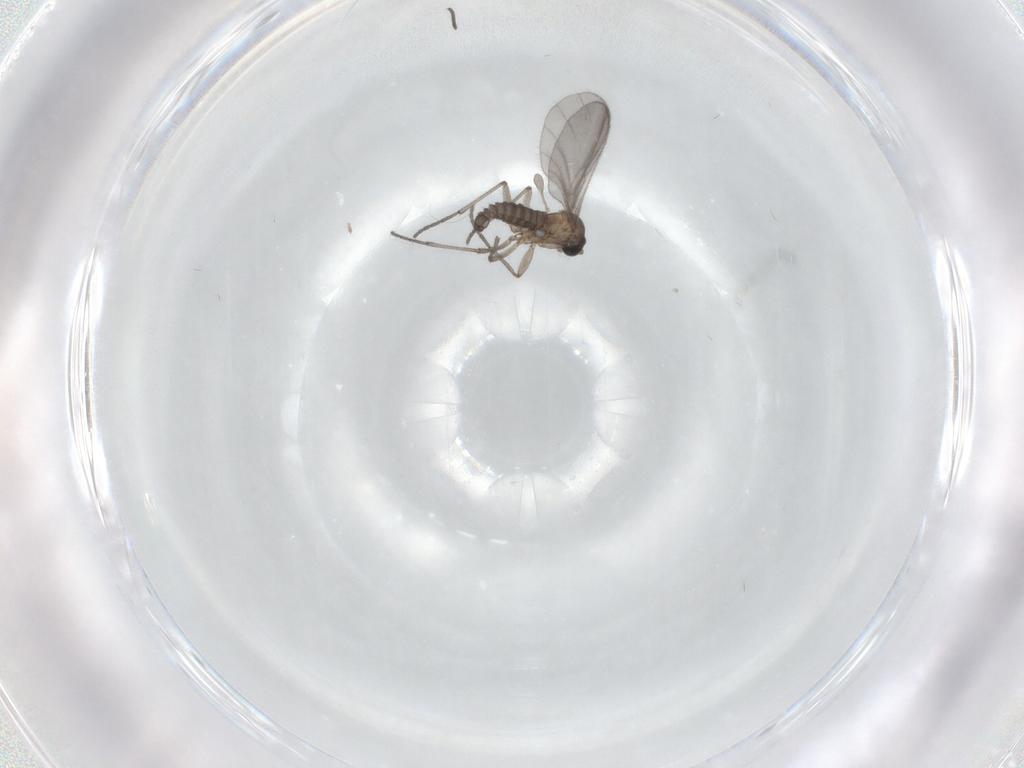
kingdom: Animalia
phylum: Arthropoda
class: Insecta
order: Diptera
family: Sciaridae
